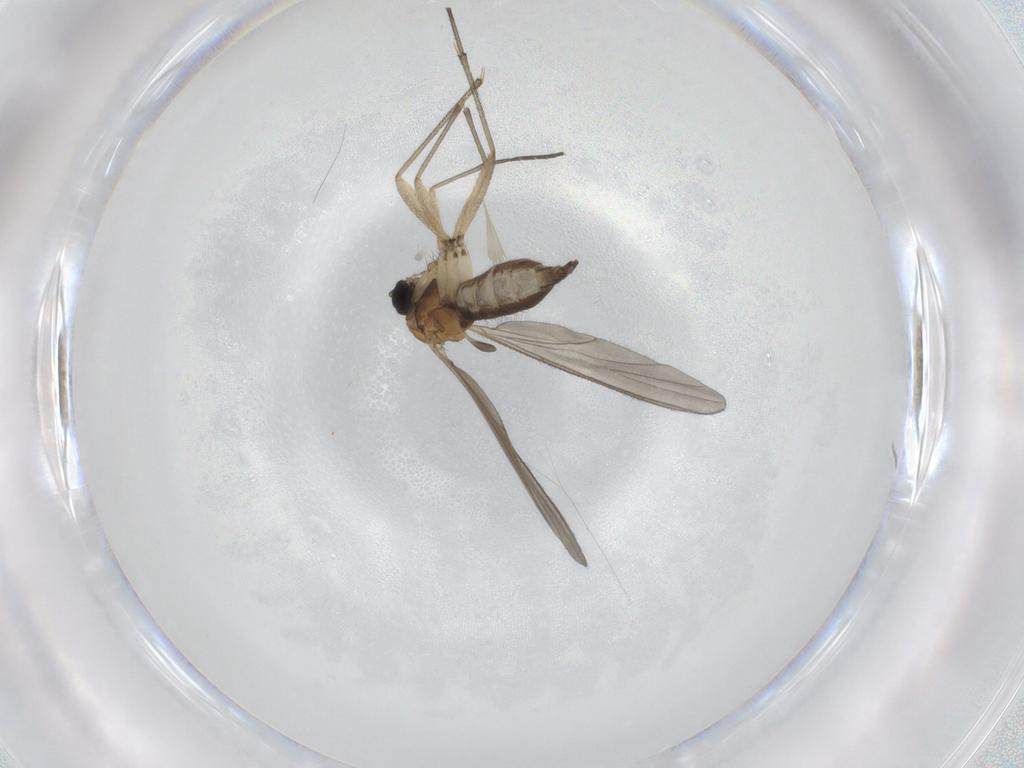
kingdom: Animalia
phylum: Arthropoda
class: Insecta
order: Diptera
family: Sciaridae
